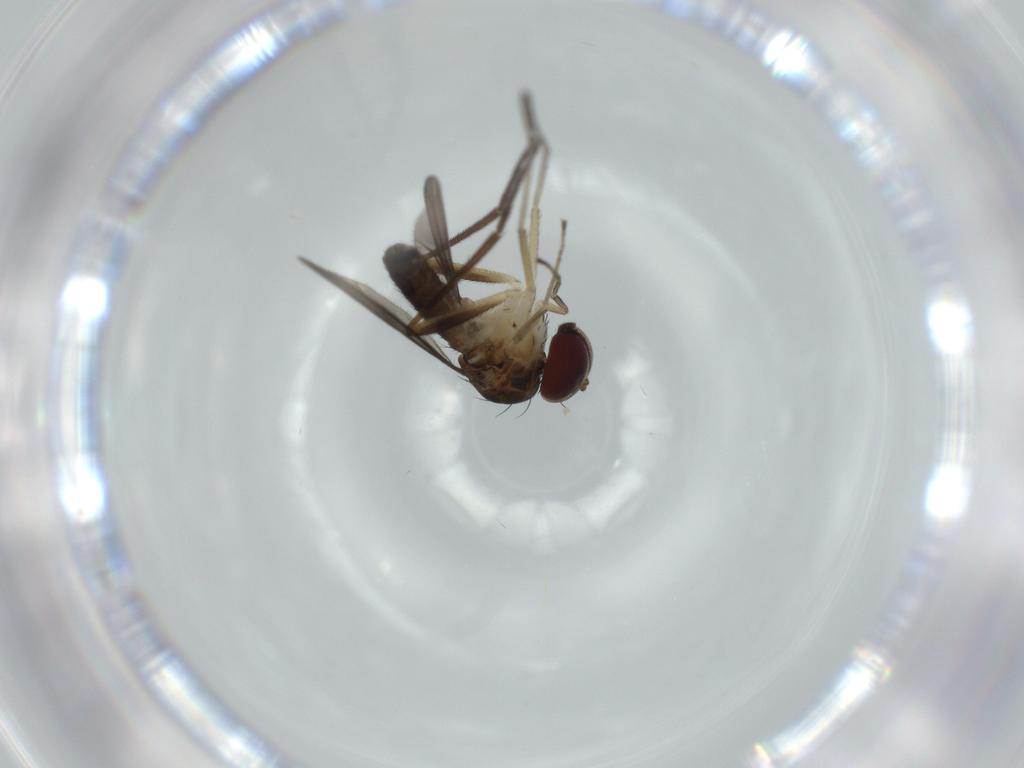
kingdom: Animalia
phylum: Arthropoda
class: Insecta
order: Diptera
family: Dolichopodidae
